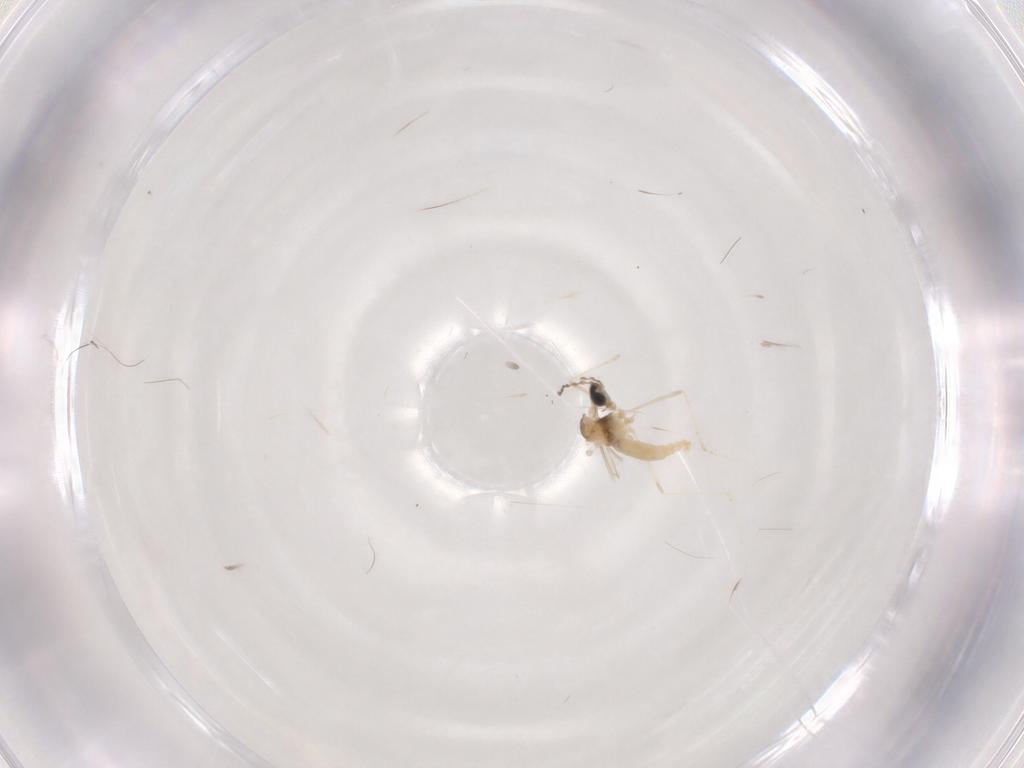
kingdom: Animalia
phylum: Arthropoda
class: Insecta
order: Diptera
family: Cecidomyiidae
